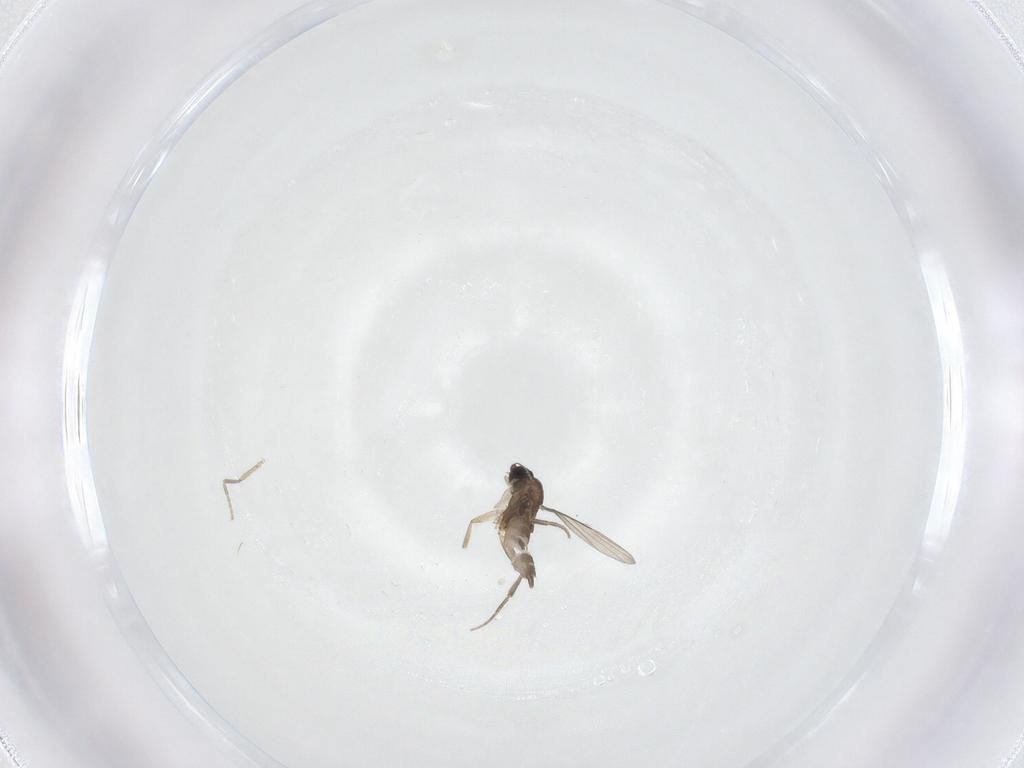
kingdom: Animalia
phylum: Arthropoda
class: Insecta
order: Diptera
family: Phoridae
